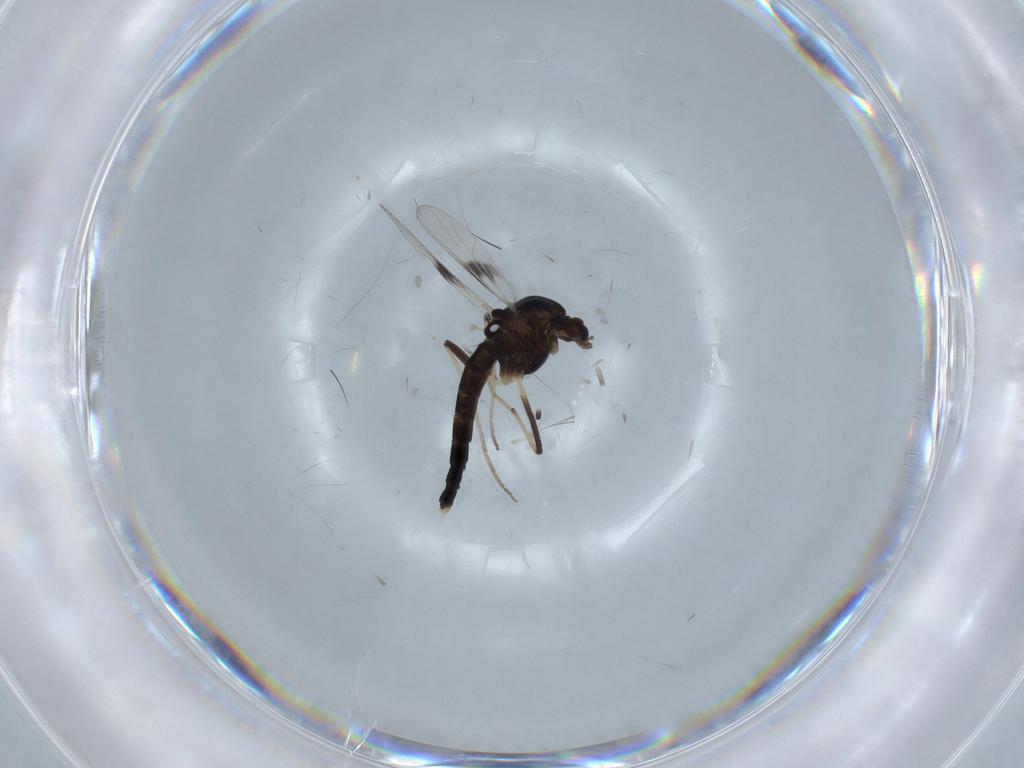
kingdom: Animalia
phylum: Arthropoda
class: Insecta
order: Diptera
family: Chironomidae
